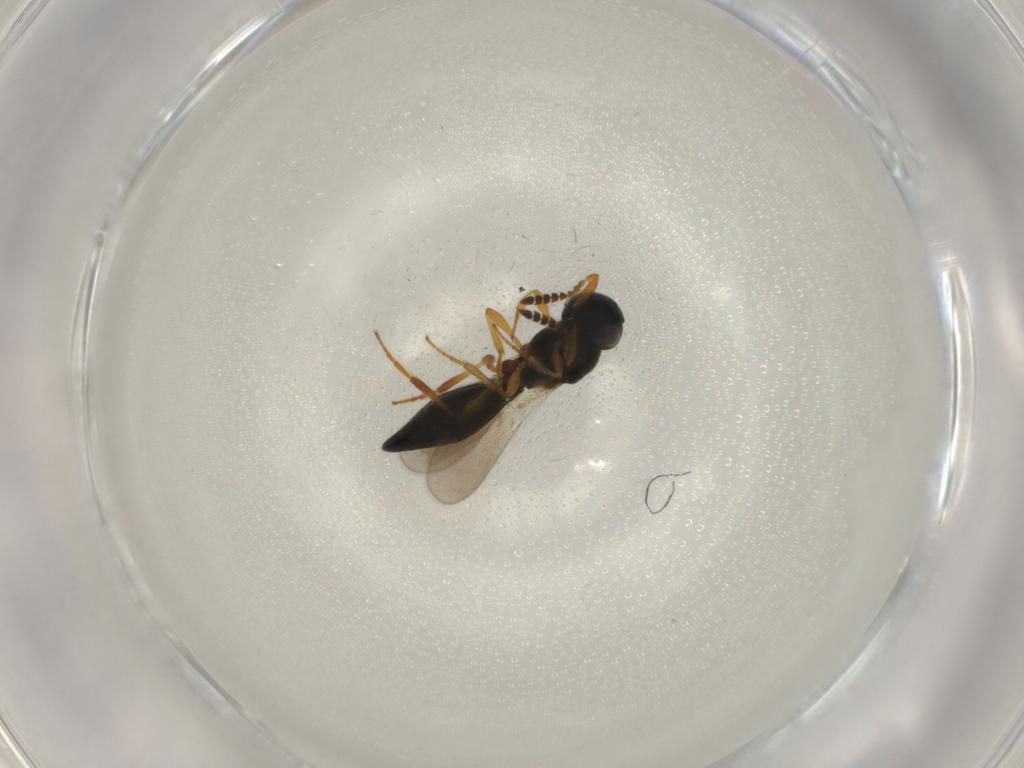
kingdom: Animalia
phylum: Arthropoda
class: Insecta
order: Hymenoptera
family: Platygastridae
